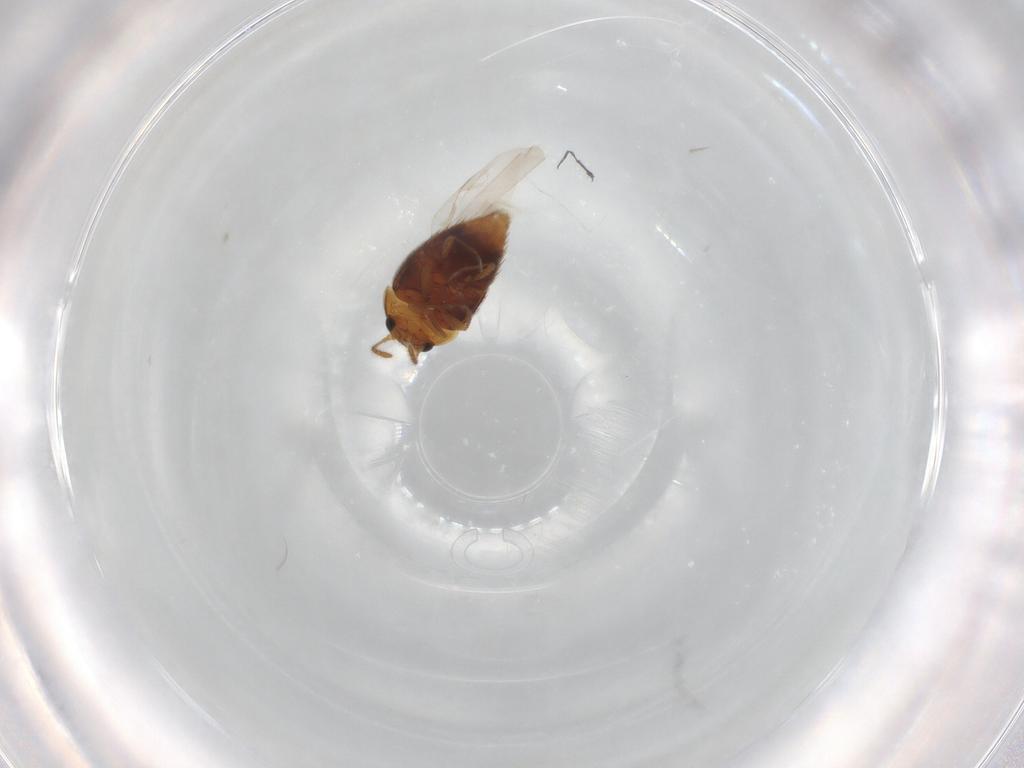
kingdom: Animalia
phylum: Arthropoda
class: Insecta
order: Coleoptera
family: Staphylinidae
